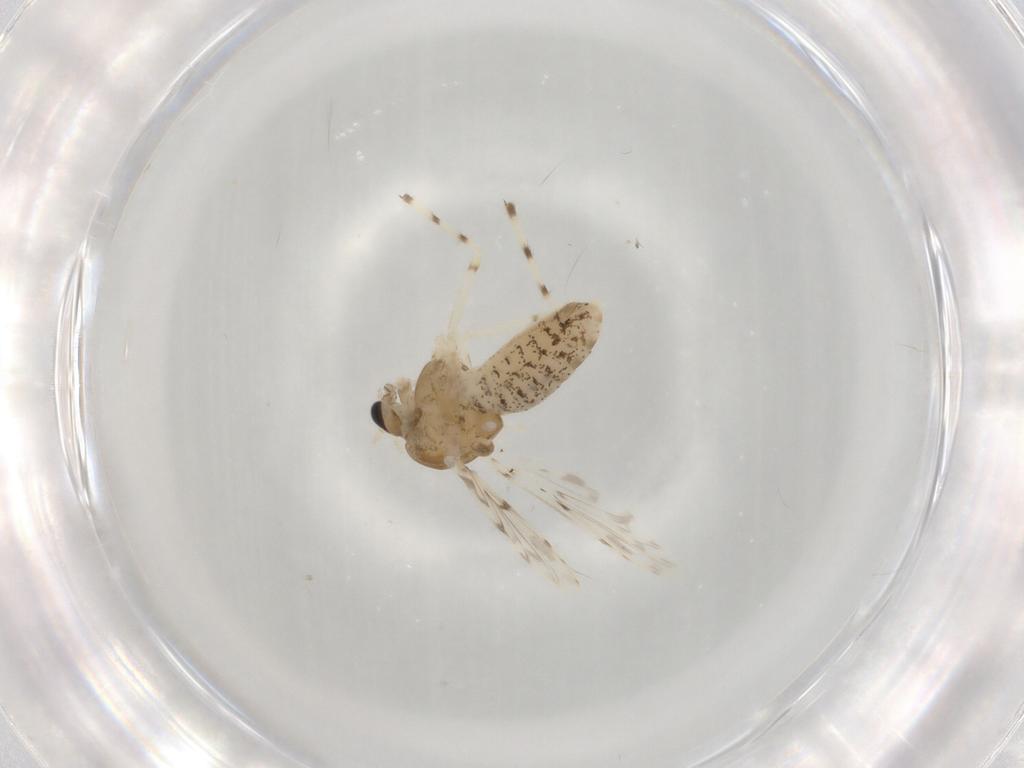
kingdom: Animalia
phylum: Arthropoda
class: Insecta
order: Diptera
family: Chironomidae
